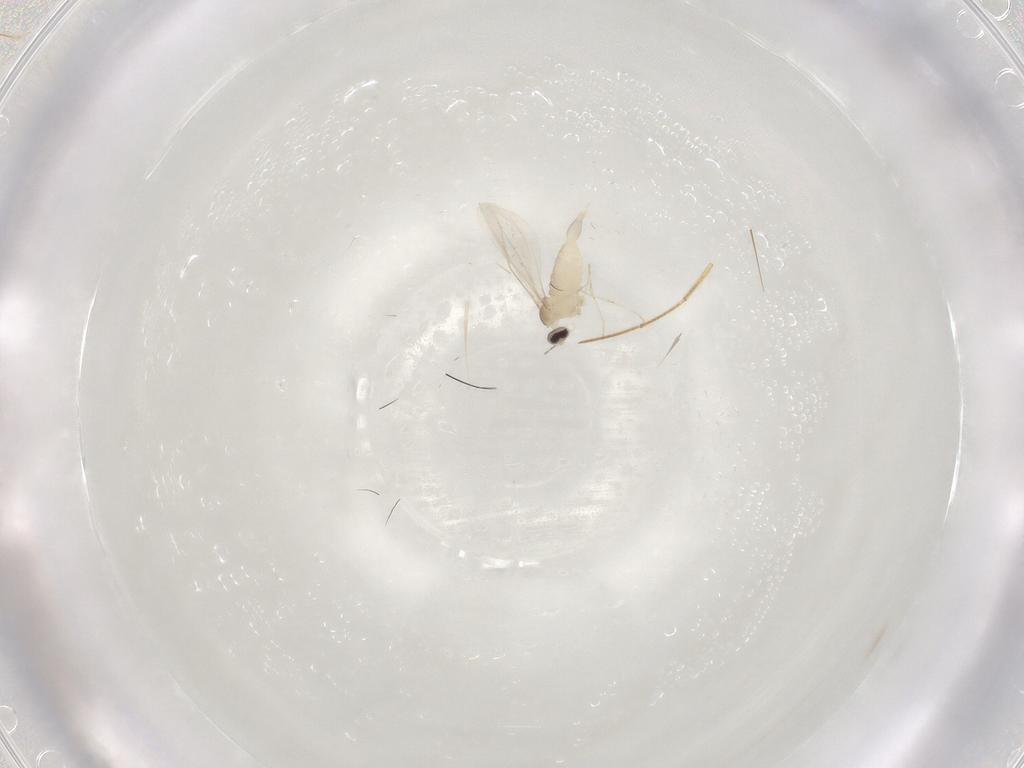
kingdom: Animalia
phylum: Arthropoda
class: Insecta
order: Diptera
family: Cecidomyiidae
